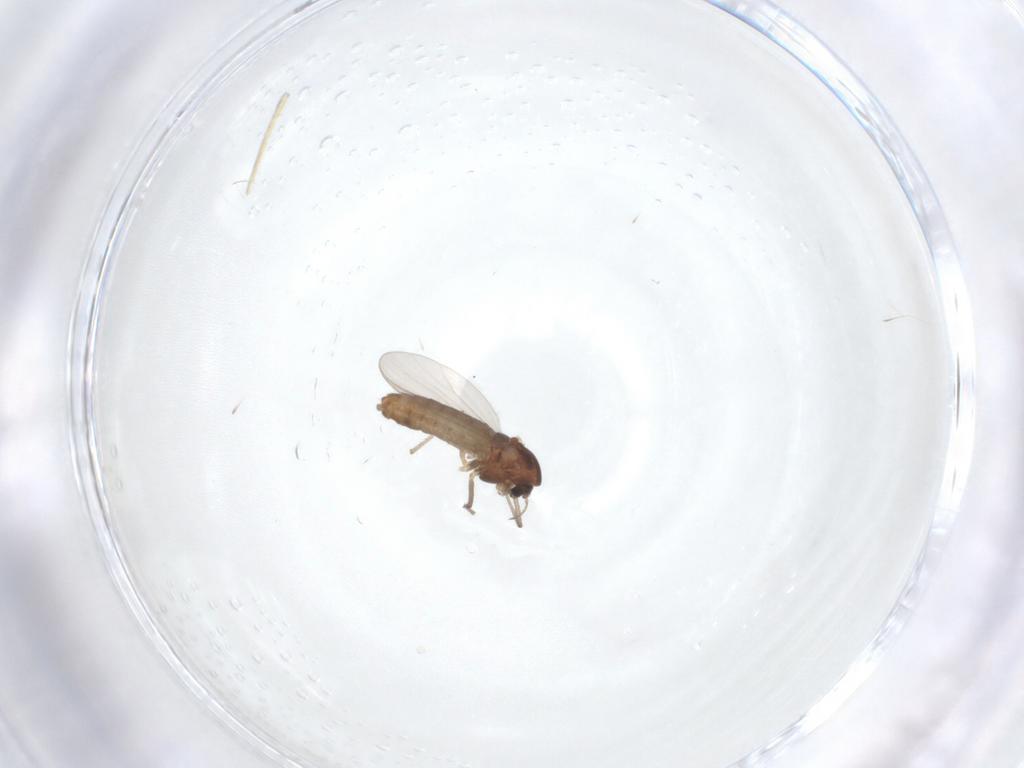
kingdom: Animalia
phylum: Arthropoda
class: Insecta
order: Diptera
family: Chironomidae
